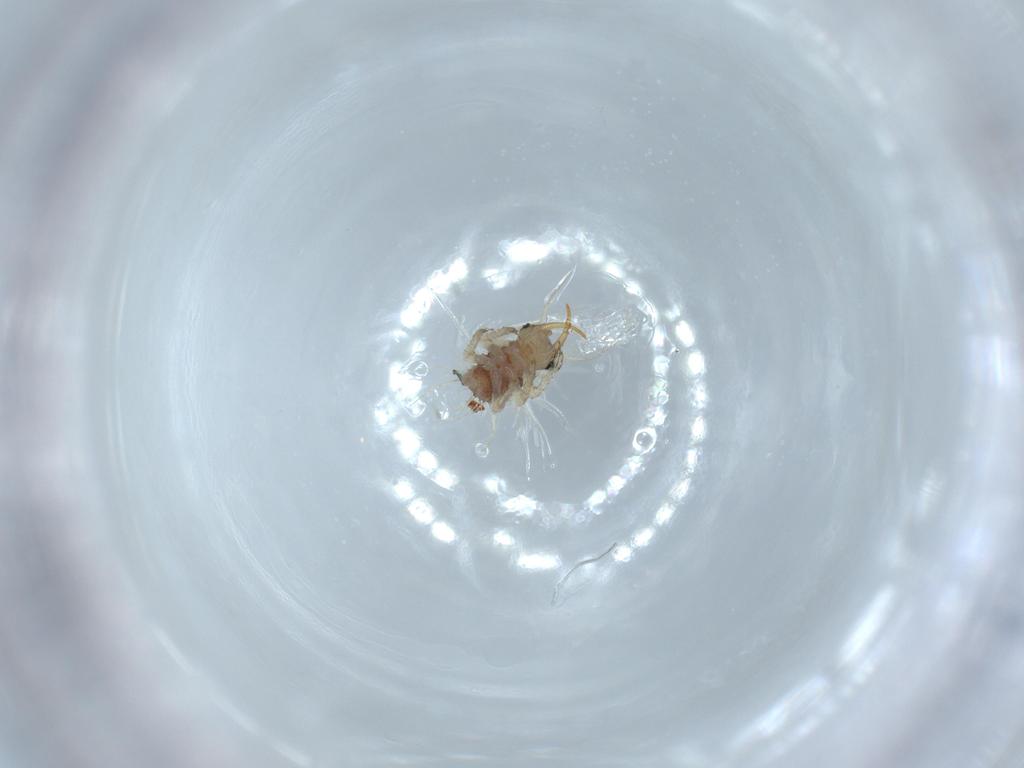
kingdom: Animalia
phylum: Arthropoda
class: Insecta
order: Neuroptera
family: Chrysopidae
